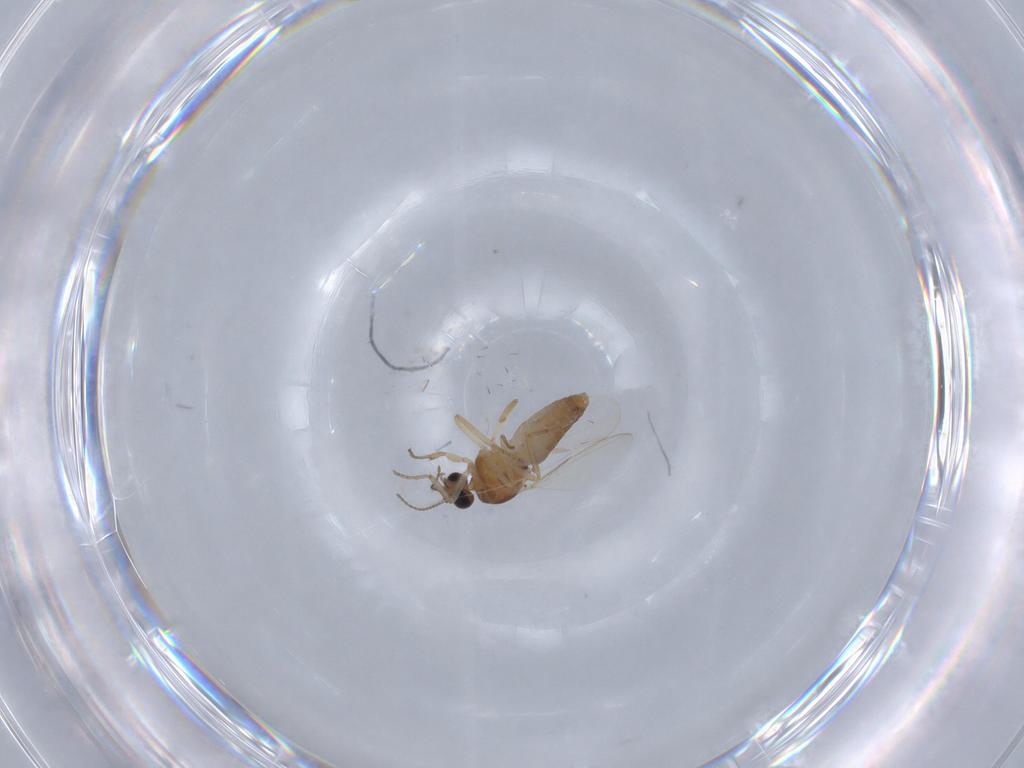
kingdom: Animalia
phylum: Arthropoda
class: Insecta
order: Diptera
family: Ceratopogonidae
